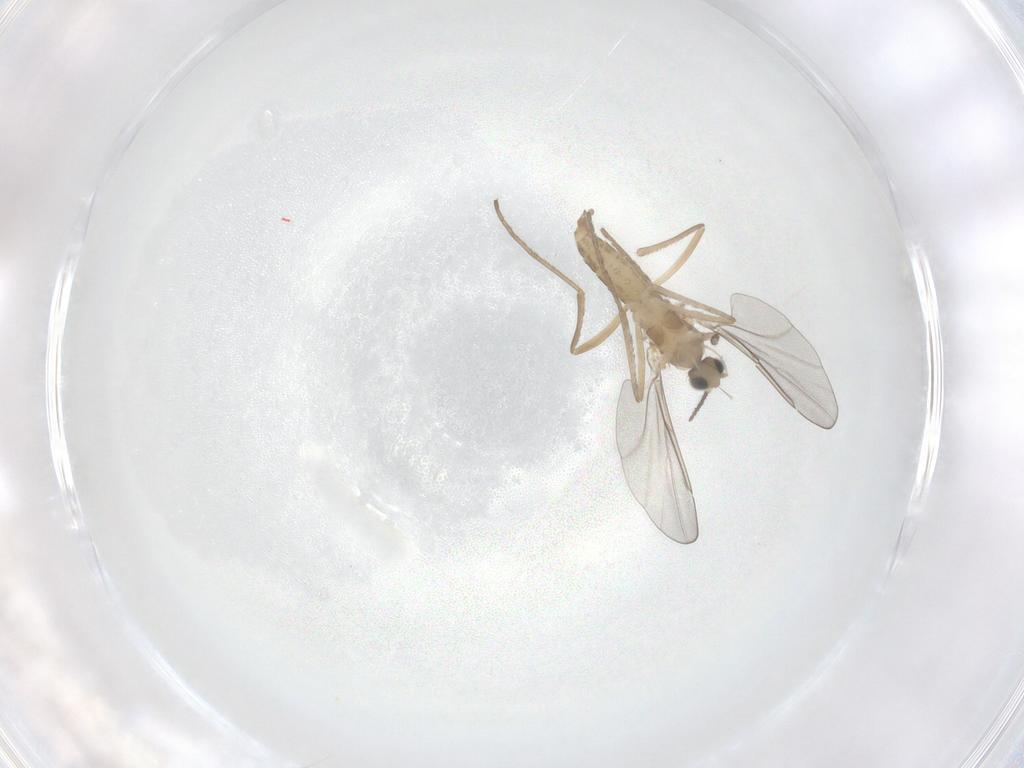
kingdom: Animalia
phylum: Arthropoda
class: Insecta
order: Diptera
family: Cecidomyiidae
